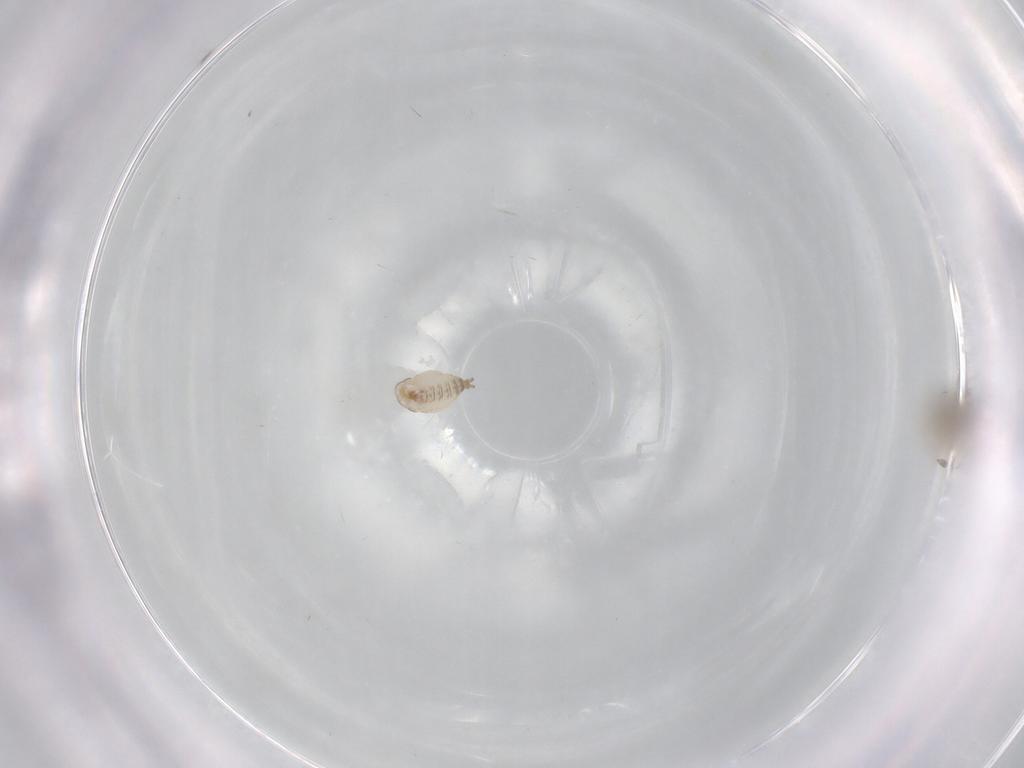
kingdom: Animalia
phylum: Arthropoda
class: Insecta
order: Diptera
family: Cecidomyiidae
